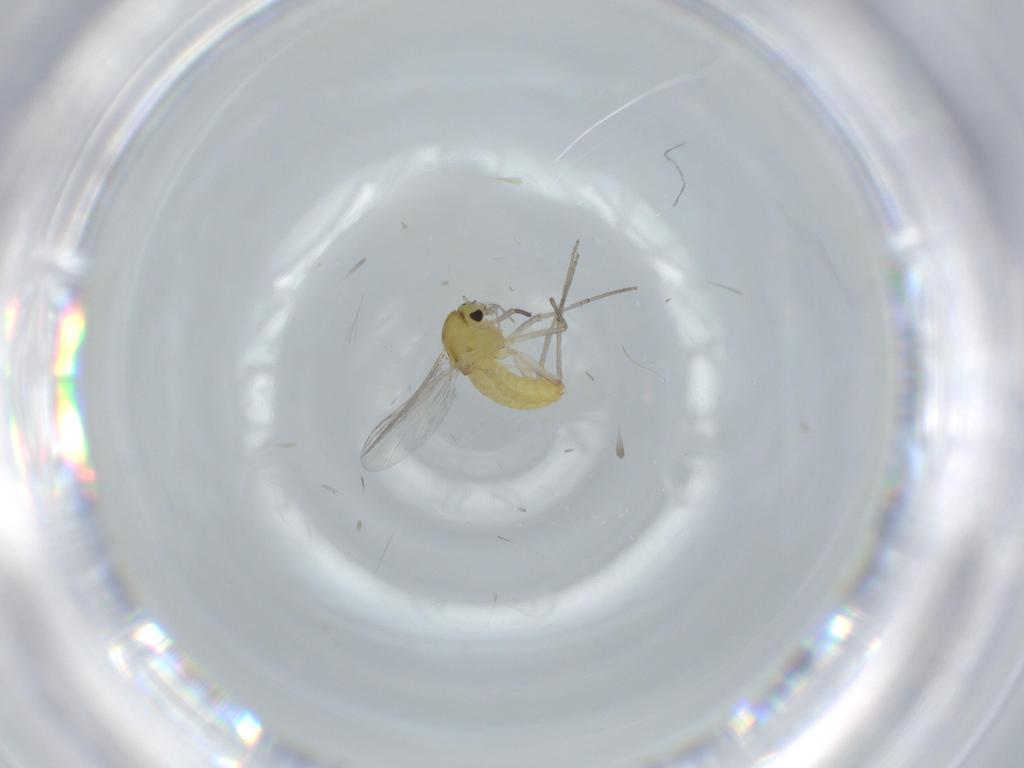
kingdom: Animalia
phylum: Arthropoda
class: Insecta
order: Diptera
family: Chironomidae
